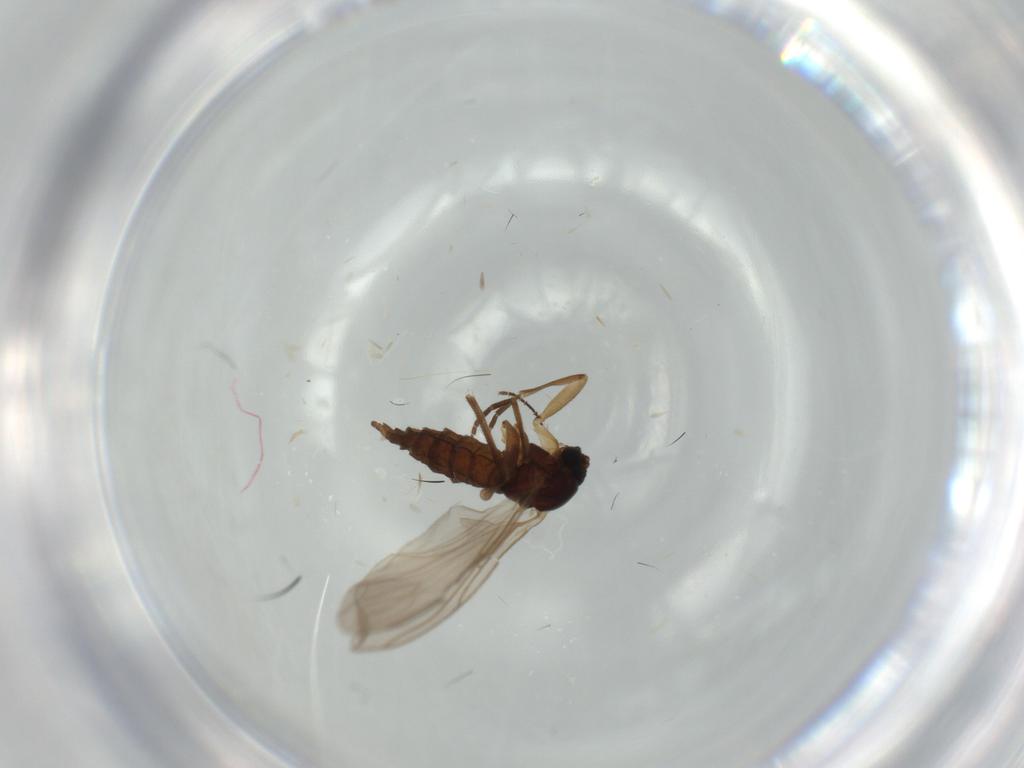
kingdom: Animalia
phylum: Arthropoda
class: Insecta
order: Diptera
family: Sciaridae
